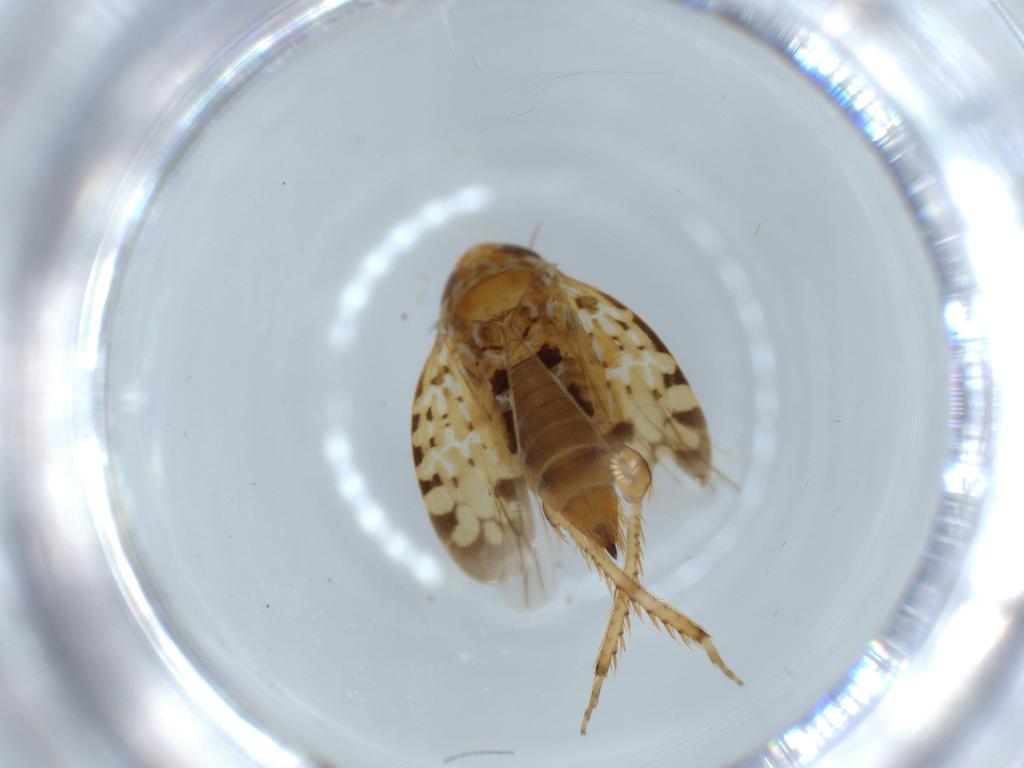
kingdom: Animalia
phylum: Arthropoda
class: Insecta
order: Hemiptera
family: Cicadellidae
